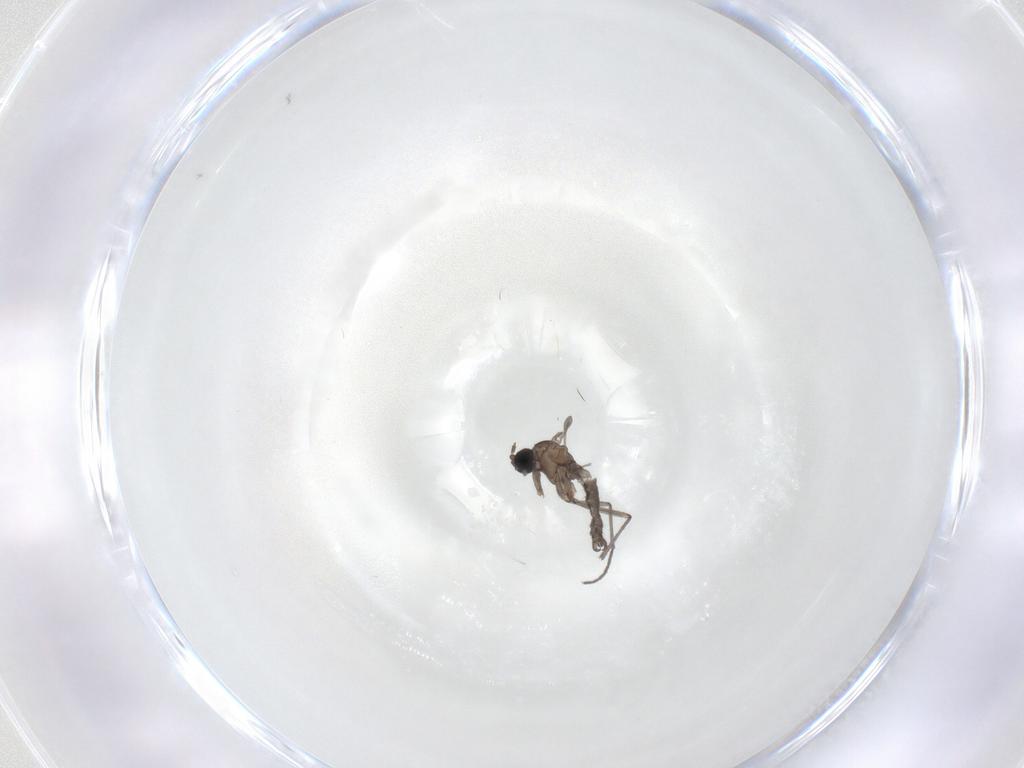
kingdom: Animalia
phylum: Arthropoda
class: Insecta
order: Diptera
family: Sciaridae
